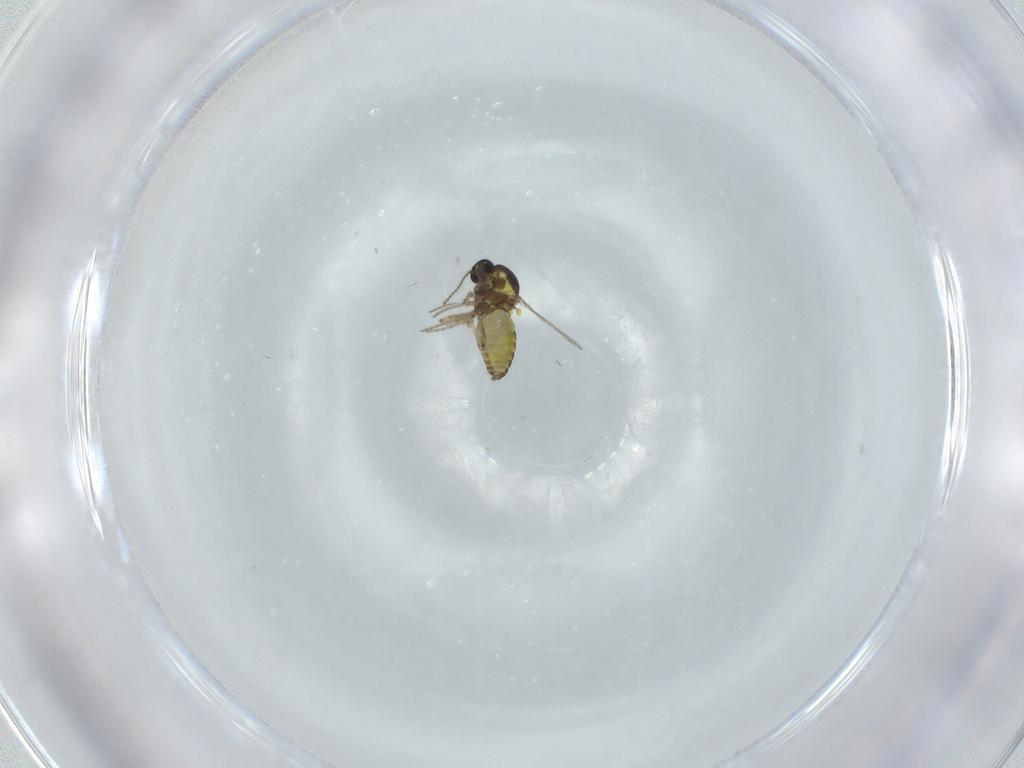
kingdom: Animalia
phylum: Arthropoda
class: Insecta
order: Diptera
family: Ceratopogonidae
